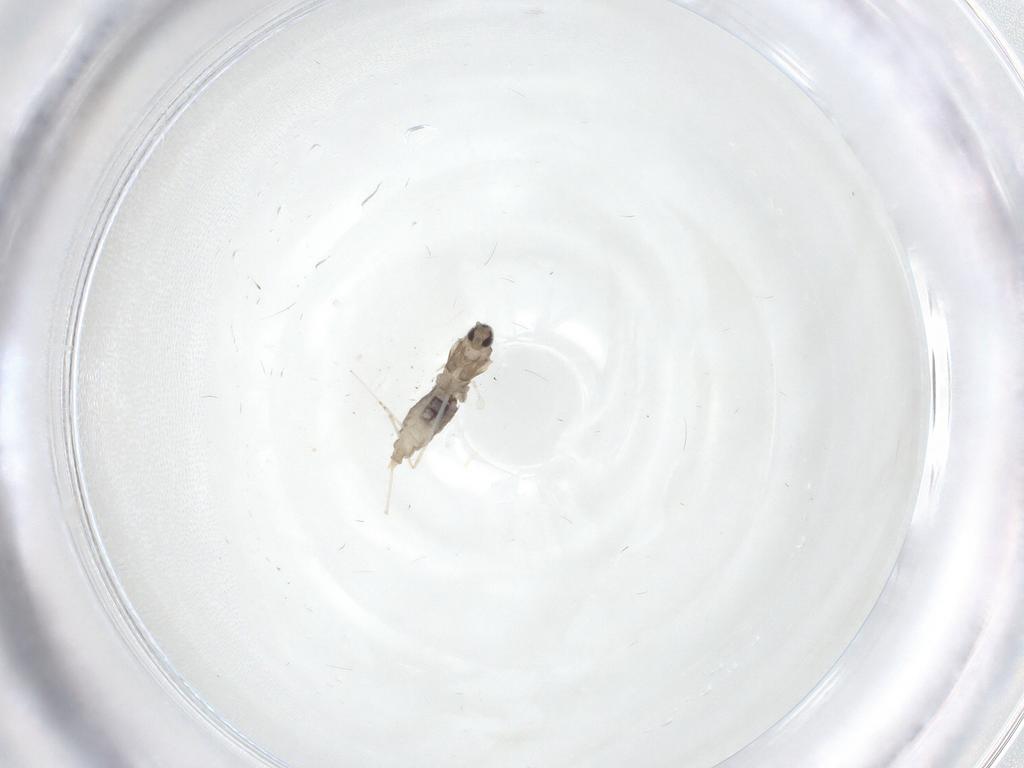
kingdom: Animalia
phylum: Arthropoda
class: Insecta
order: Diptera
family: Cecidomyiidae
